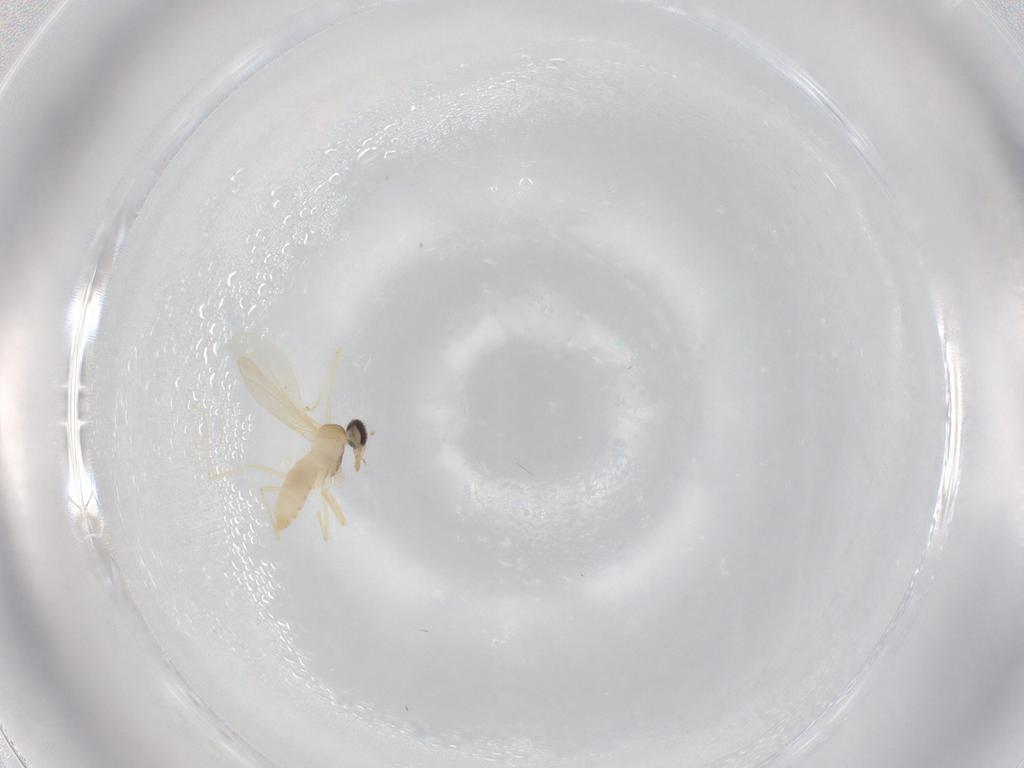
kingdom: Animalia
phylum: Arthropoda
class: Insecta
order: Diptera
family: Cecidomyiidae
